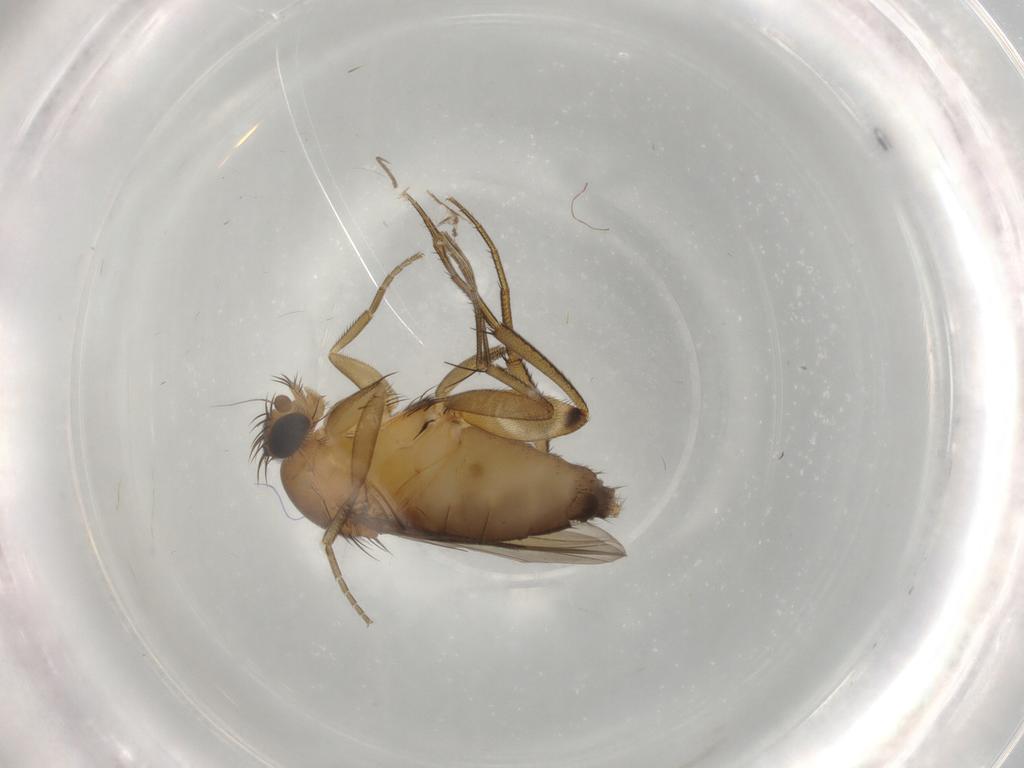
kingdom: Animalia
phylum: Arthropoda
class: Insecta
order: Diptera
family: Phoridae
